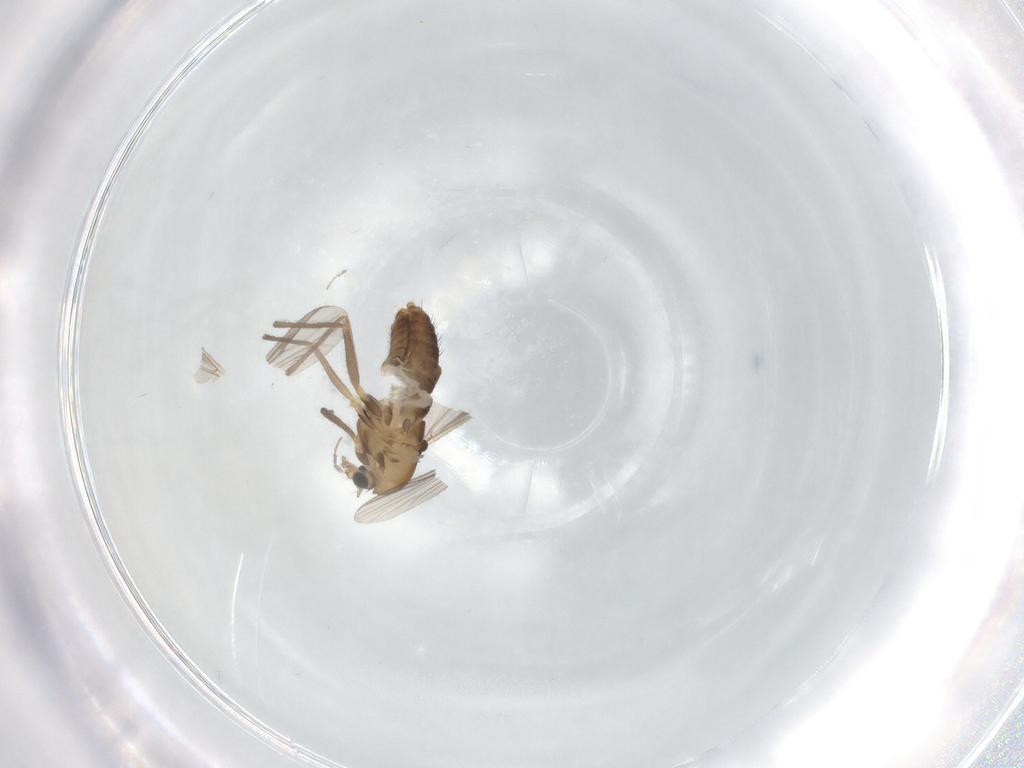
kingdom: Animalia
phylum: Arthropoda
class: Insecta
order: Diptera
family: Chironomidae
